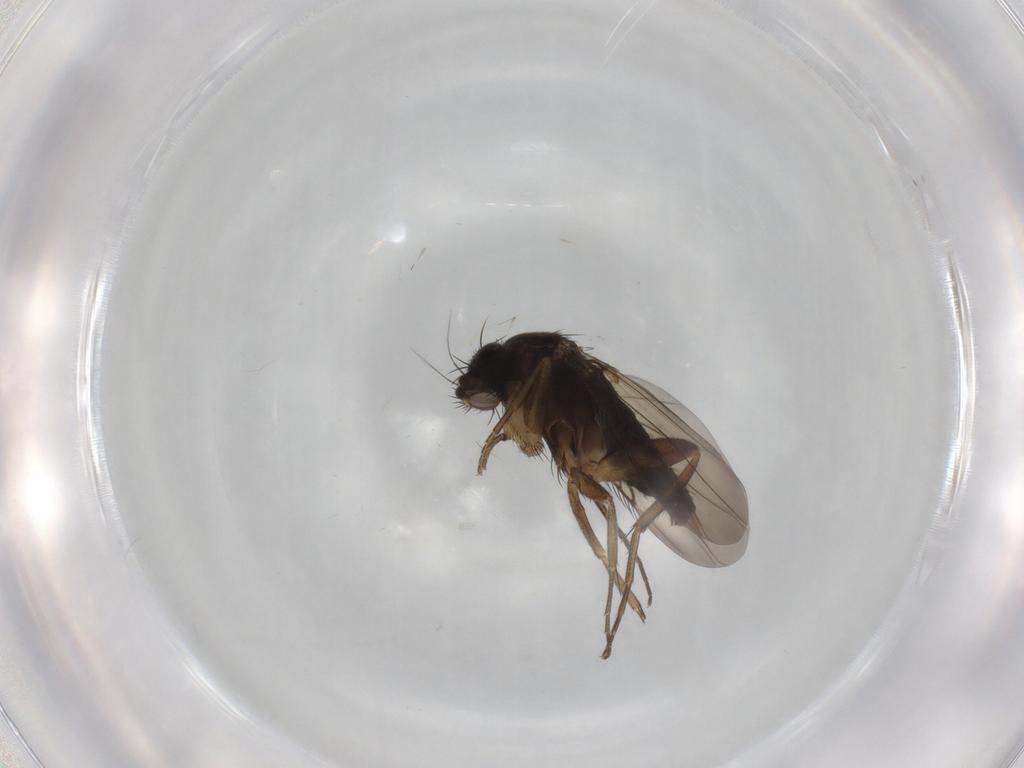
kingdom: Animalia
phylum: Arthropoda
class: Insecta
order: Diptera
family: Phoridae
